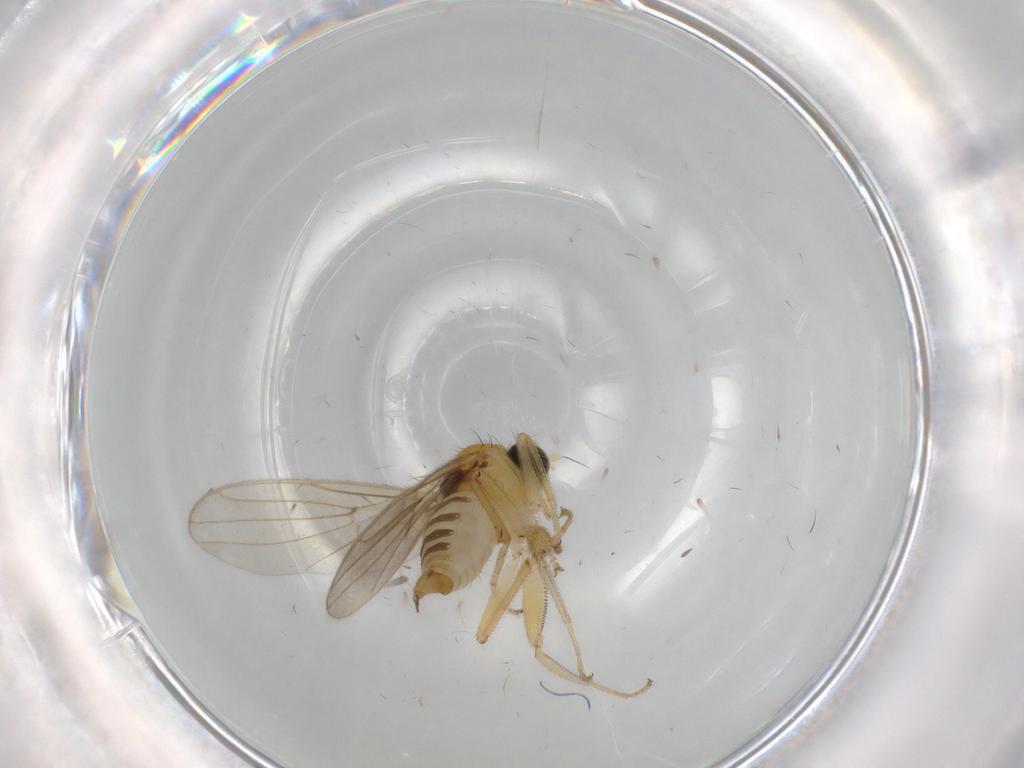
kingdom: Animalia
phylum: Arthropoda
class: Insecta
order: Diptera
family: Hybotidae
